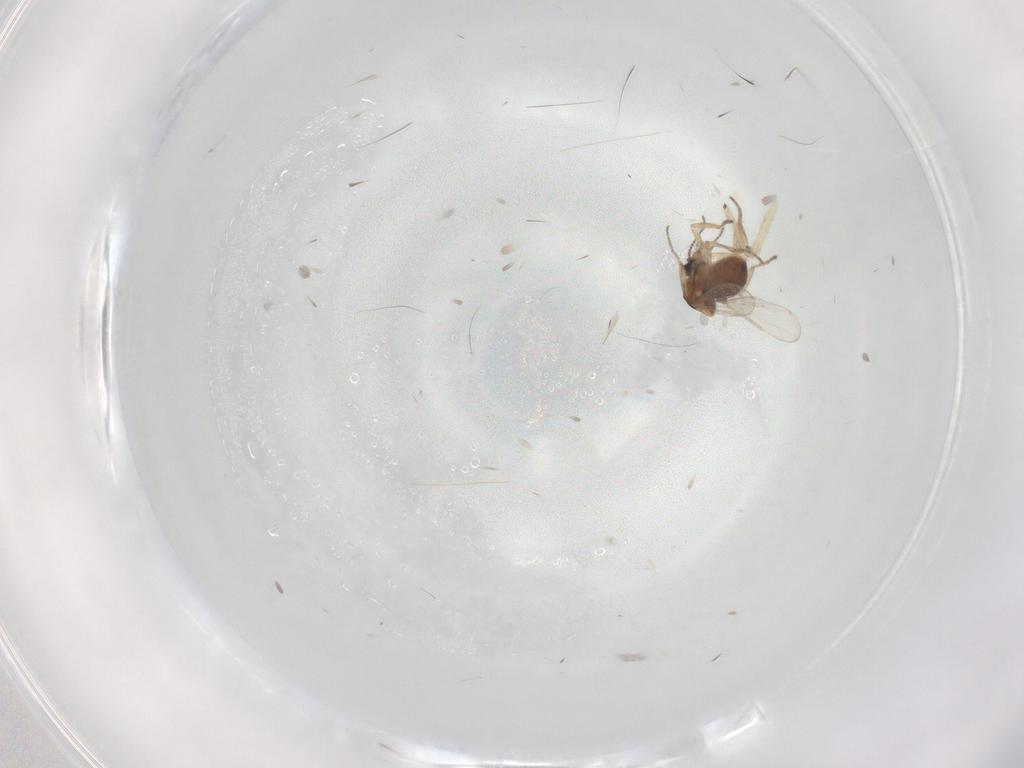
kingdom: Animalia
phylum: Arthropoda
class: Insecta
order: Diptera
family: Ceratopogonidae
